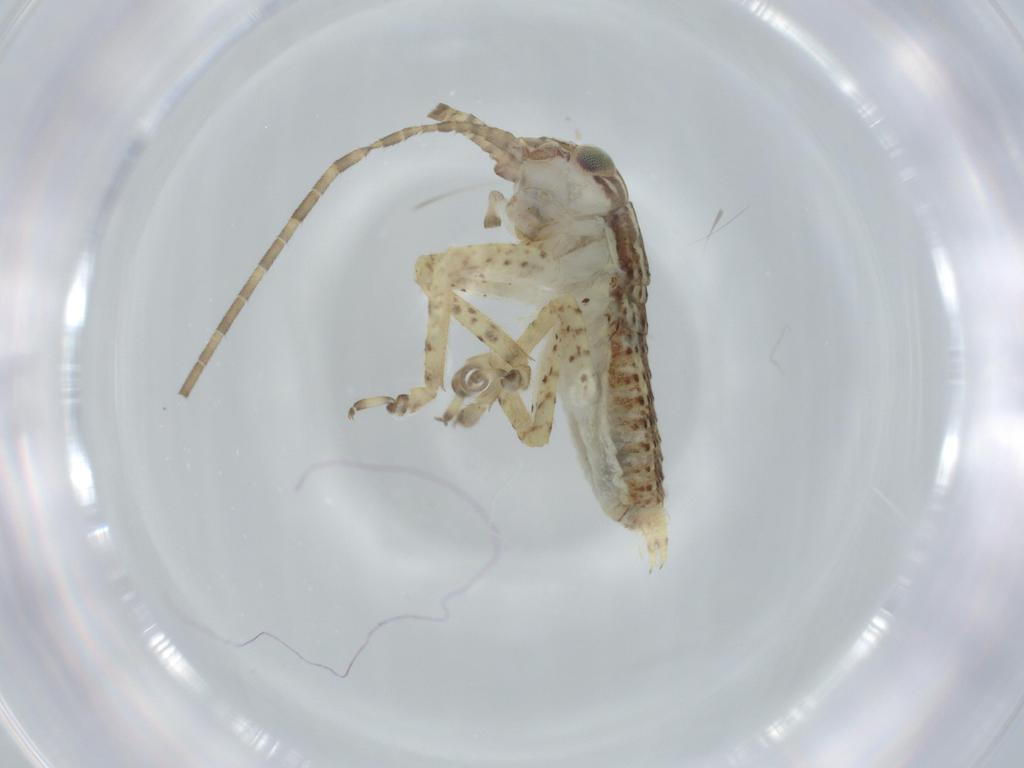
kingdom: Animalia
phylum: Arthropoda
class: Insecta
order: Orthoptera
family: Gryllidae
